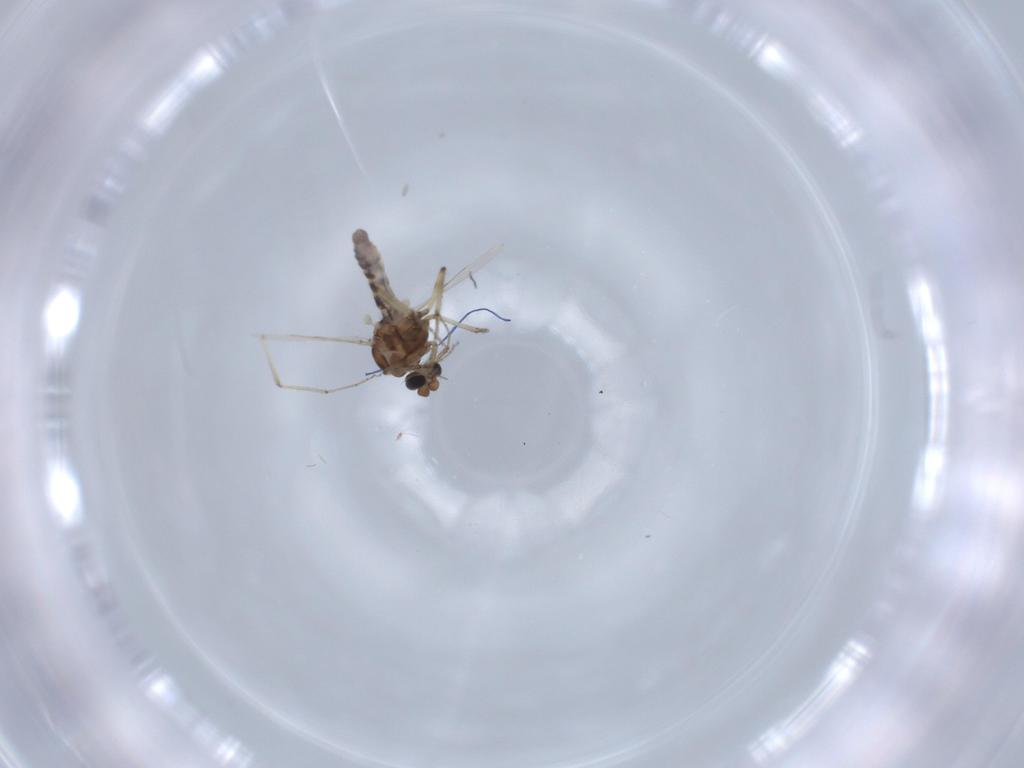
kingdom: Animalia
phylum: Arthropoda
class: Insecta
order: Diptera
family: Ceratopogonidae
